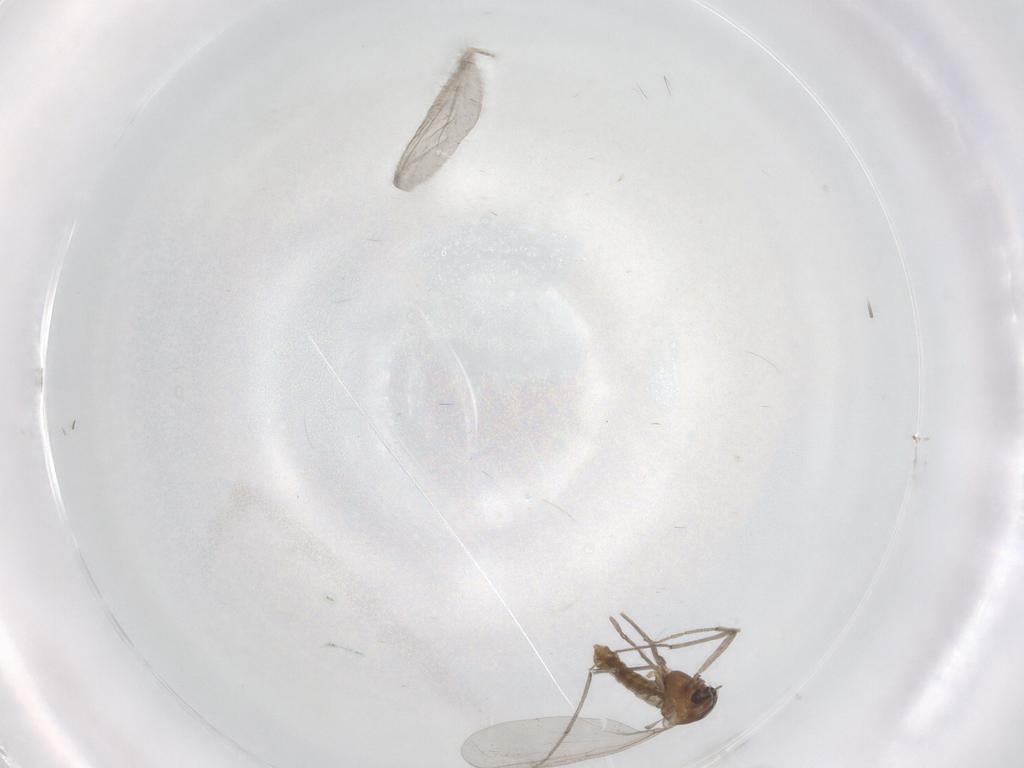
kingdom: Animalia
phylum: Arthropoda
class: Insecta
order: Diptera
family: Chironomidae
